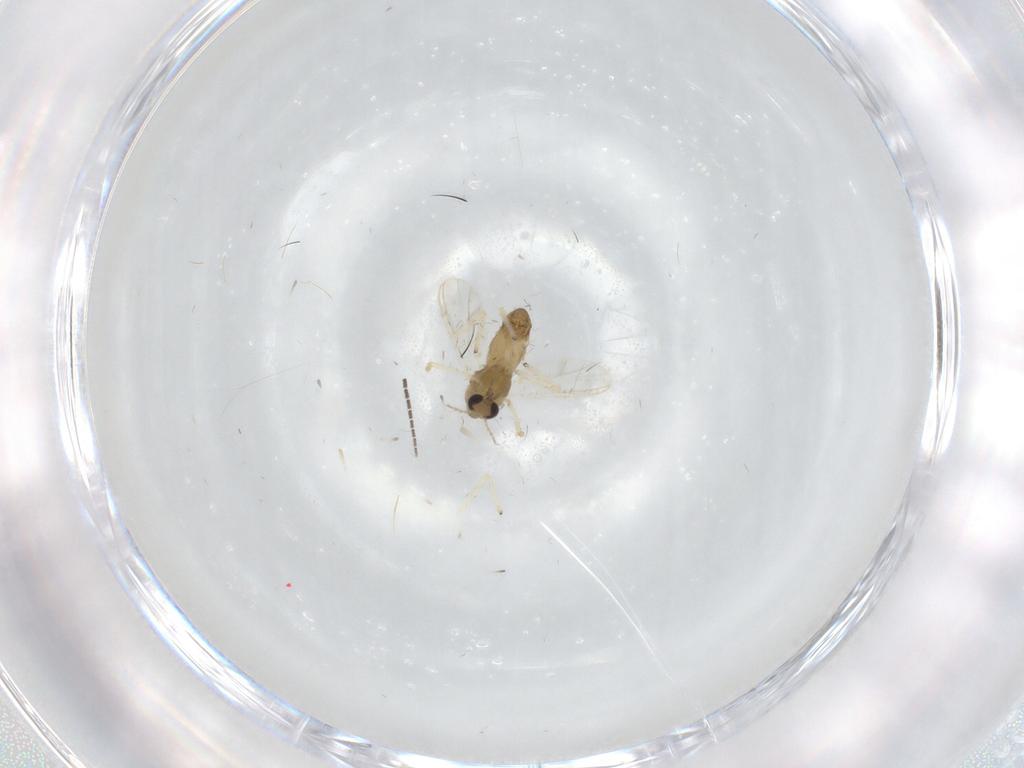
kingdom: Animalia
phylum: Arthropoda
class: Insecta
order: Diptera
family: Chironomidae
